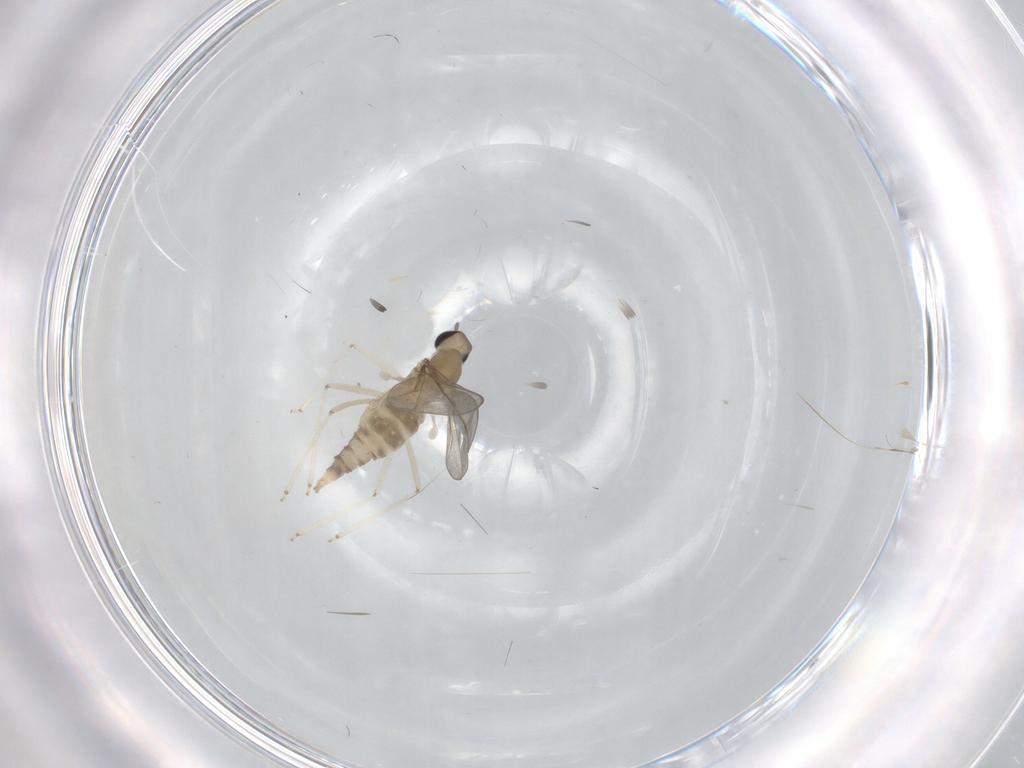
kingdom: Animalia
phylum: Arthropoda
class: Insecta
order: Diptera
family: Cecidomyiidae
